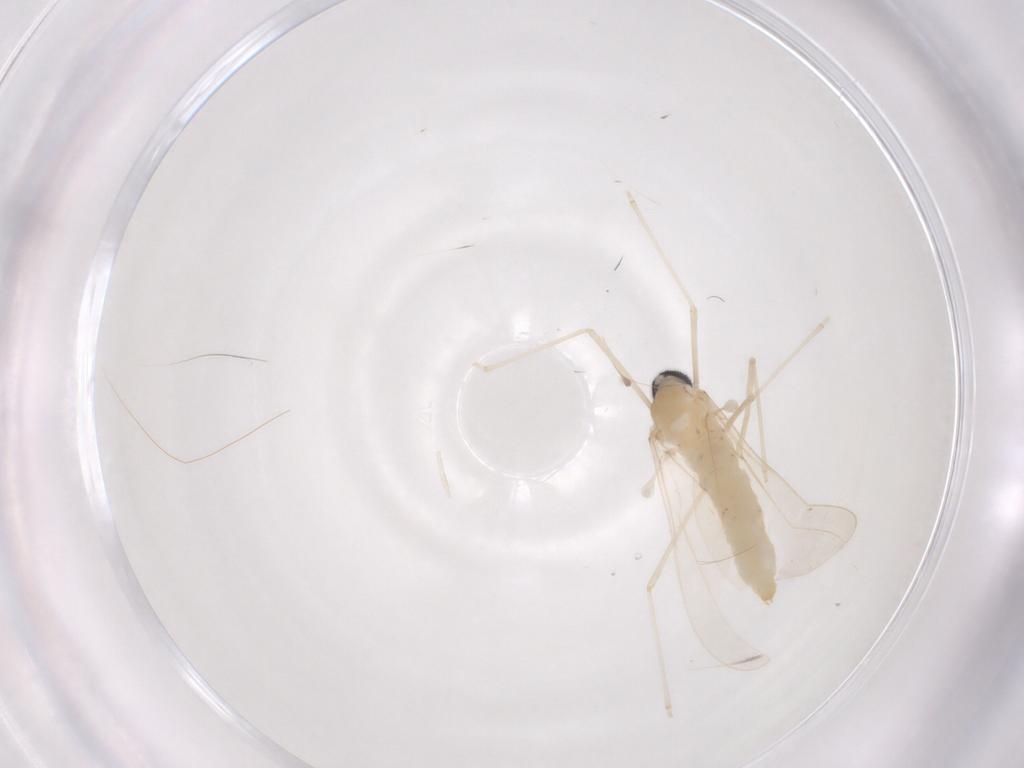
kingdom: Animalia
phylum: Arthropoda
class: Insecta
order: Diptera
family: Cecidomyiidae
